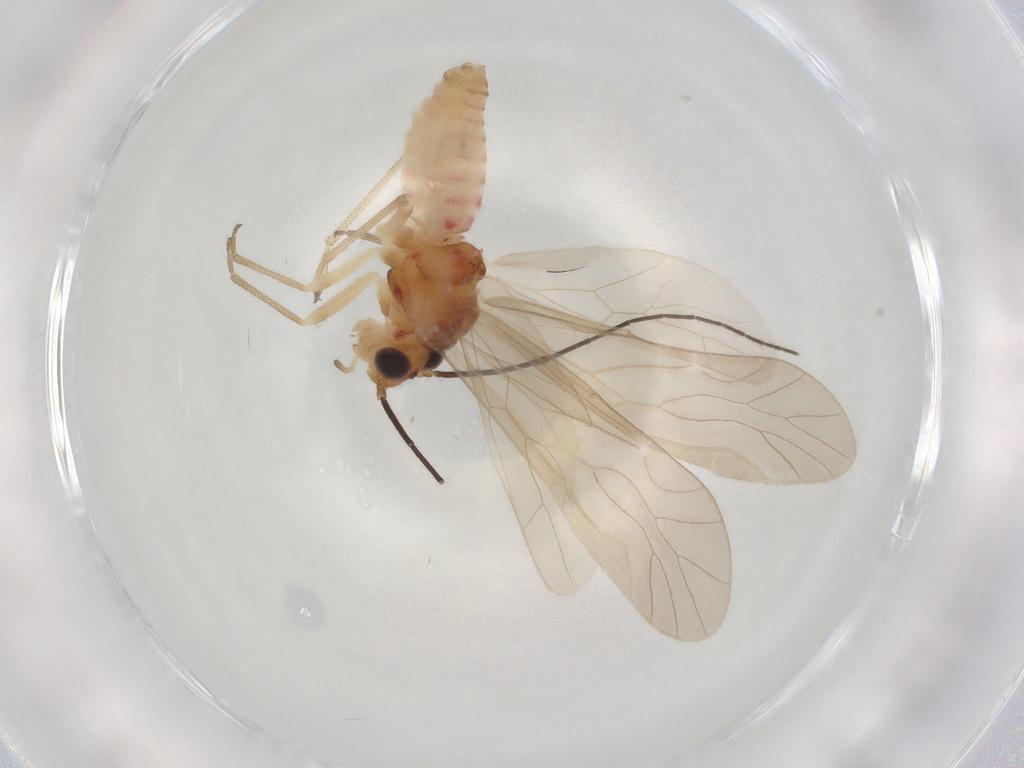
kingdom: Animalia
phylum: Arthropoda
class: Insecta
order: Psocodea
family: Caeciliusidae
